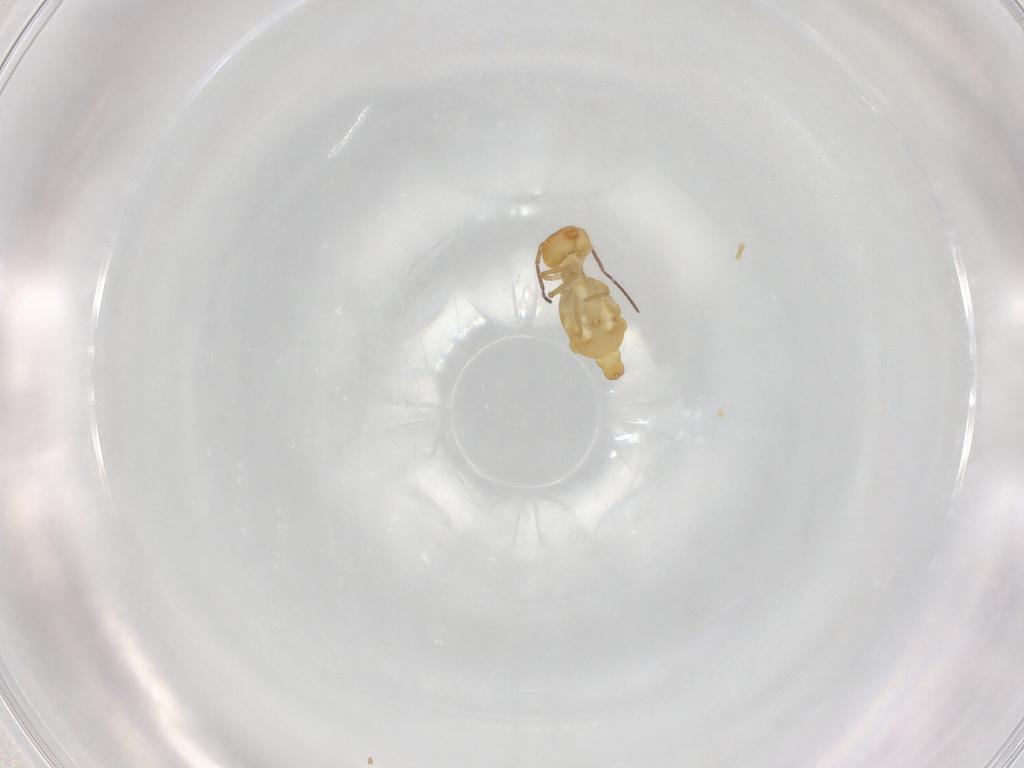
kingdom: Animalia
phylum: Arthropoda
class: Collembola
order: Symphypleona
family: Bourletiellidae
